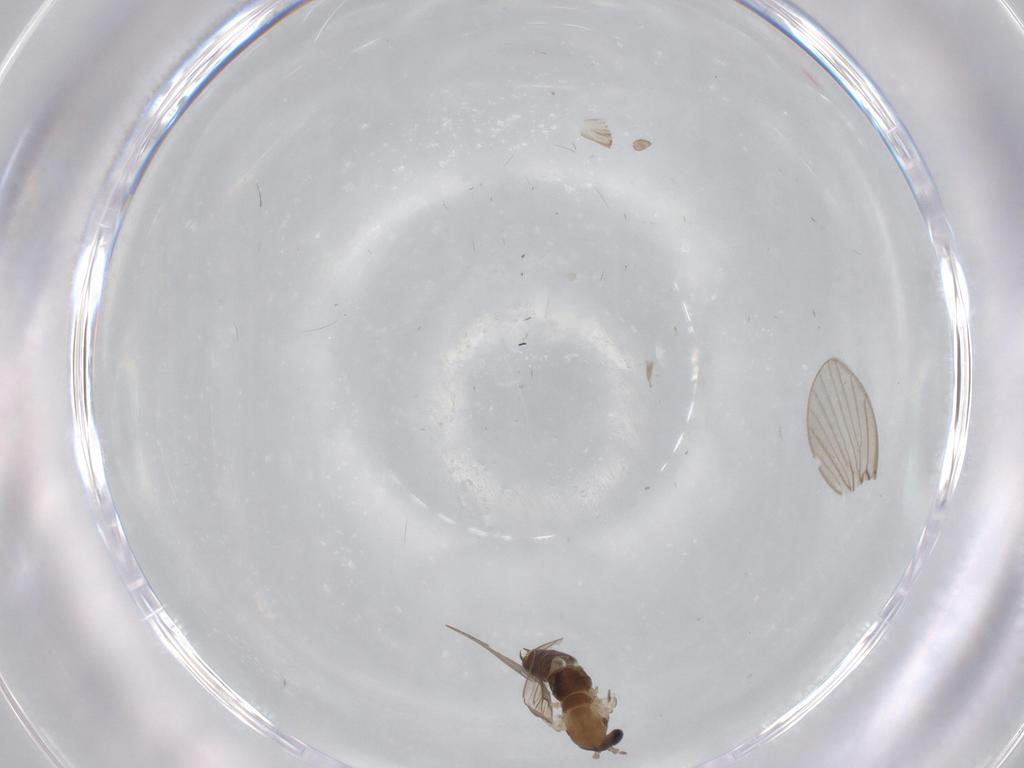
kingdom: Animalia
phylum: Arthropoda
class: Insecta
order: Diptera
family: Psychodidae
